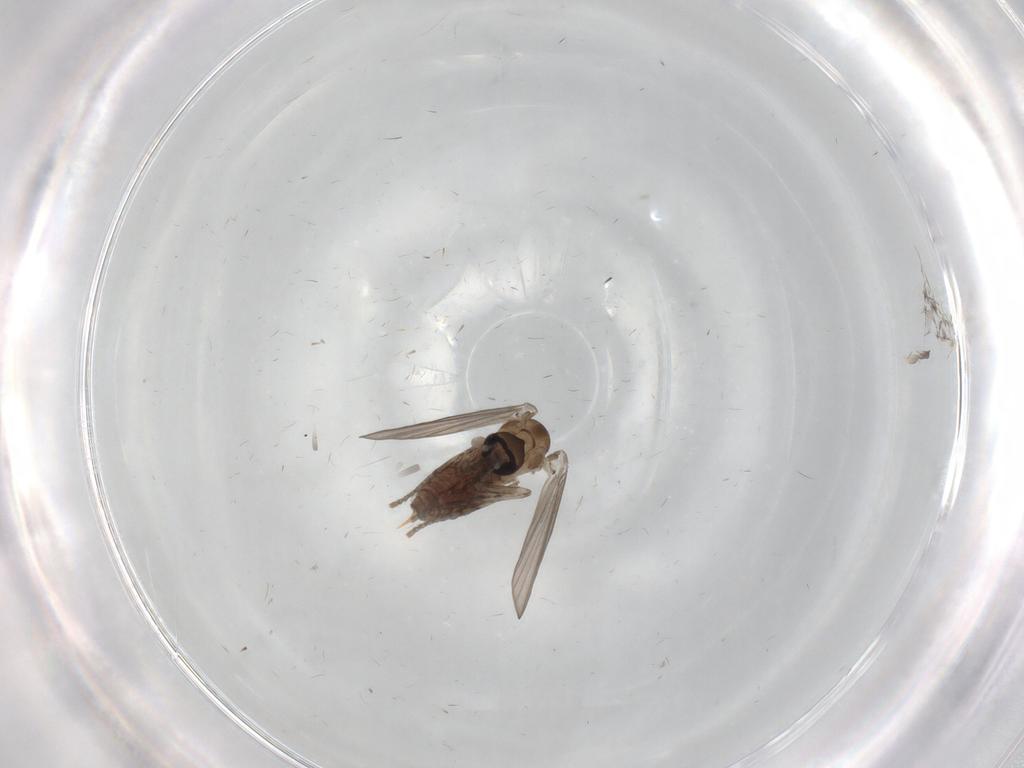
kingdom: Animalia
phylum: Arthropoda
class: Insecta
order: Diptera
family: Psychodidae
